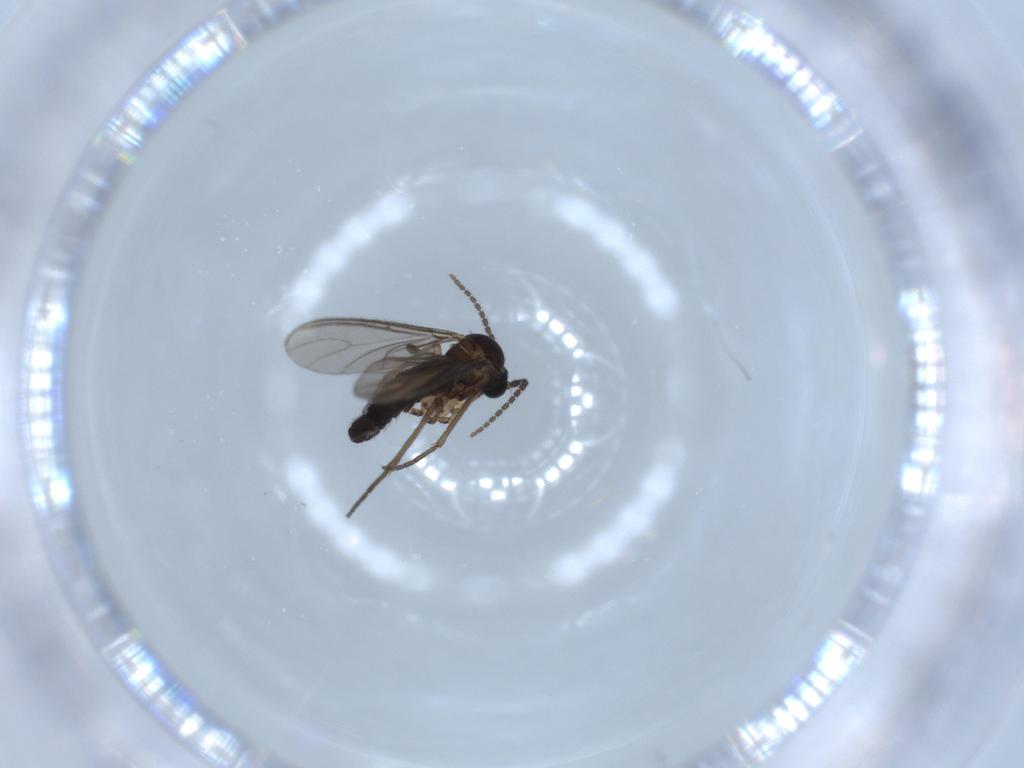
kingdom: Animalia
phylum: Arthropoda
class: Insecta
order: Diptera
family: Sciaridae
